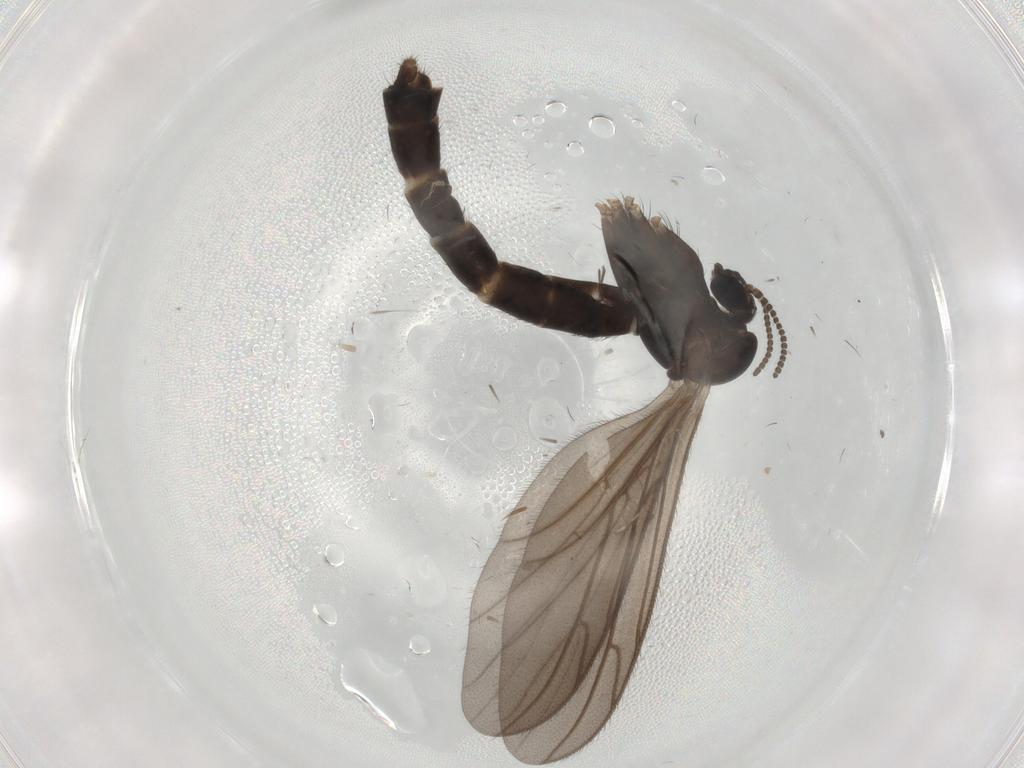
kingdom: Animalia
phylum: Arthropoda
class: Insecta
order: Diptera
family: Ditomyiidae
